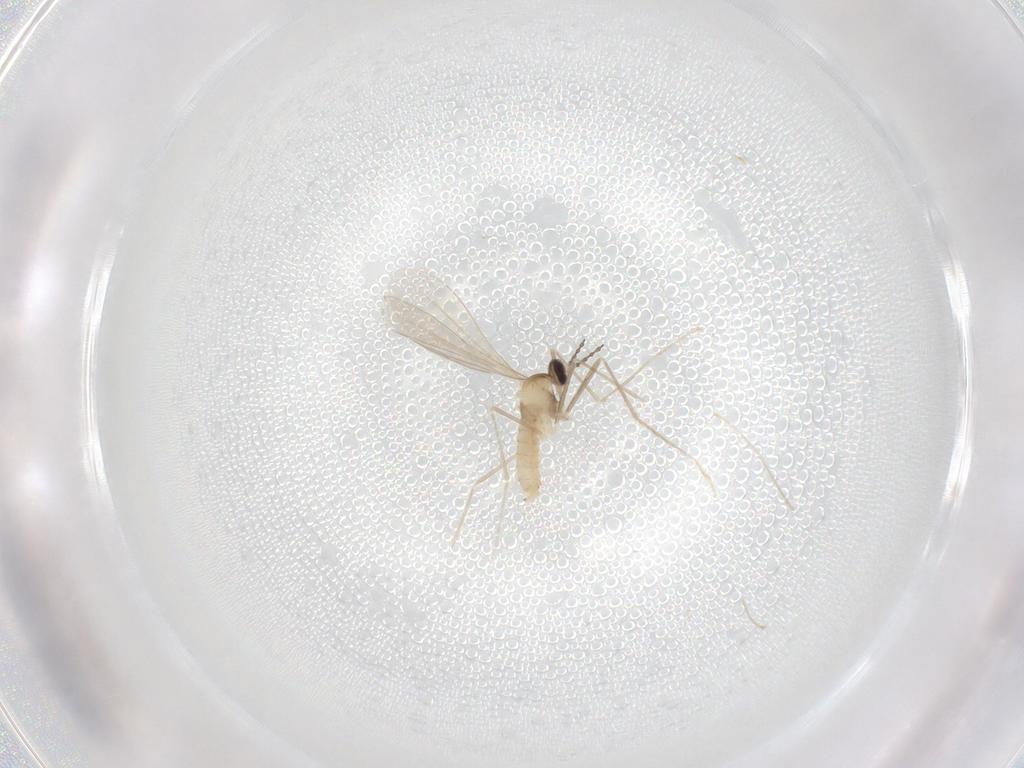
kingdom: Animalia
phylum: Arthropoda
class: Insecta
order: Diptera
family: Cecidomyiidae
